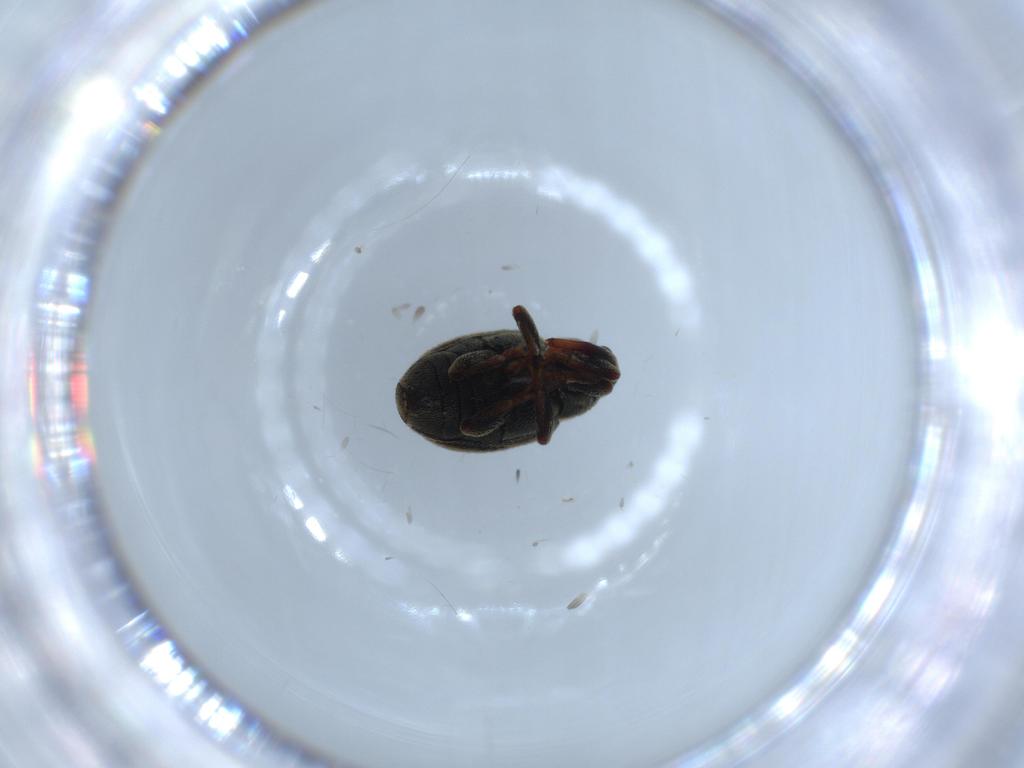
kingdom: Animalia
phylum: Arthropoda
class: Insecta
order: Coleoptera
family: Curculionidae
